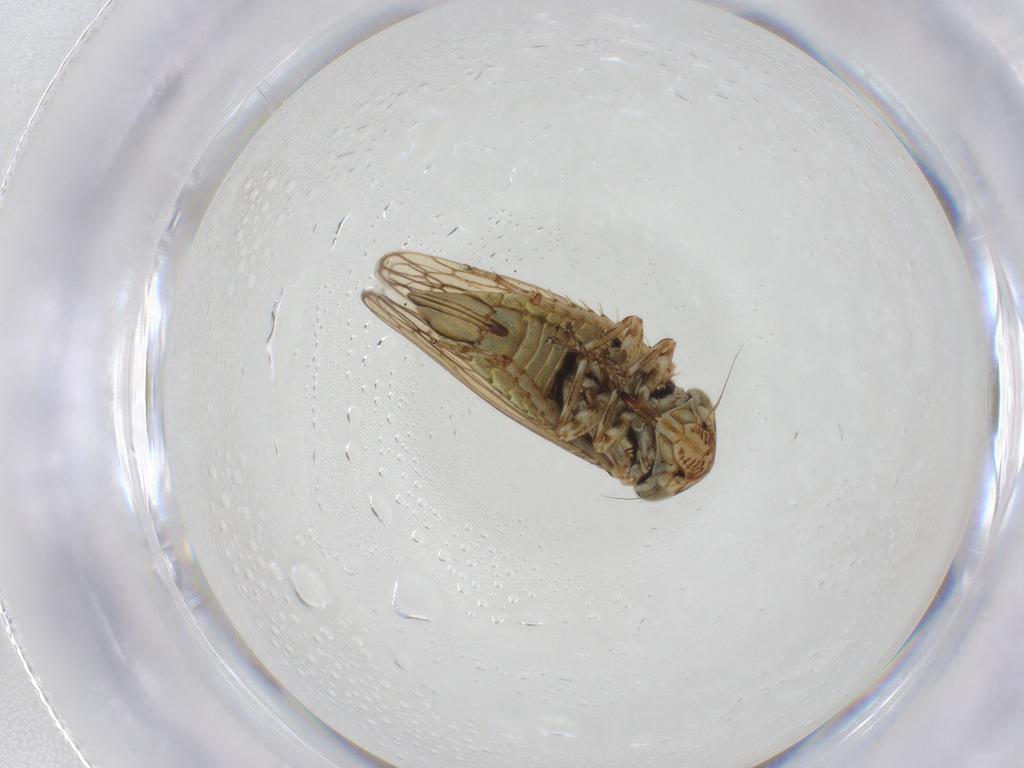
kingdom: Animalia
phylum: Arthropoda
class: Insecta
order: Hemiptera
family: Cicadellidae
